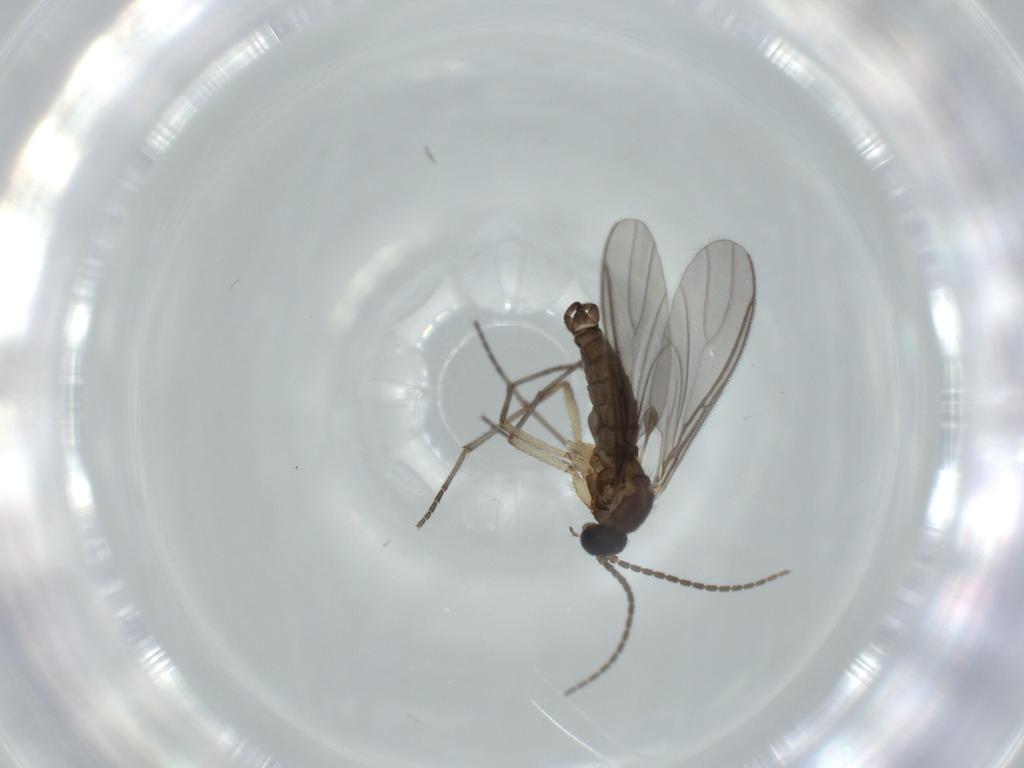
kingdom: Animalia
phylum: Arthropoda
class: Insecta
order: Diptera
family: Sciaridae
